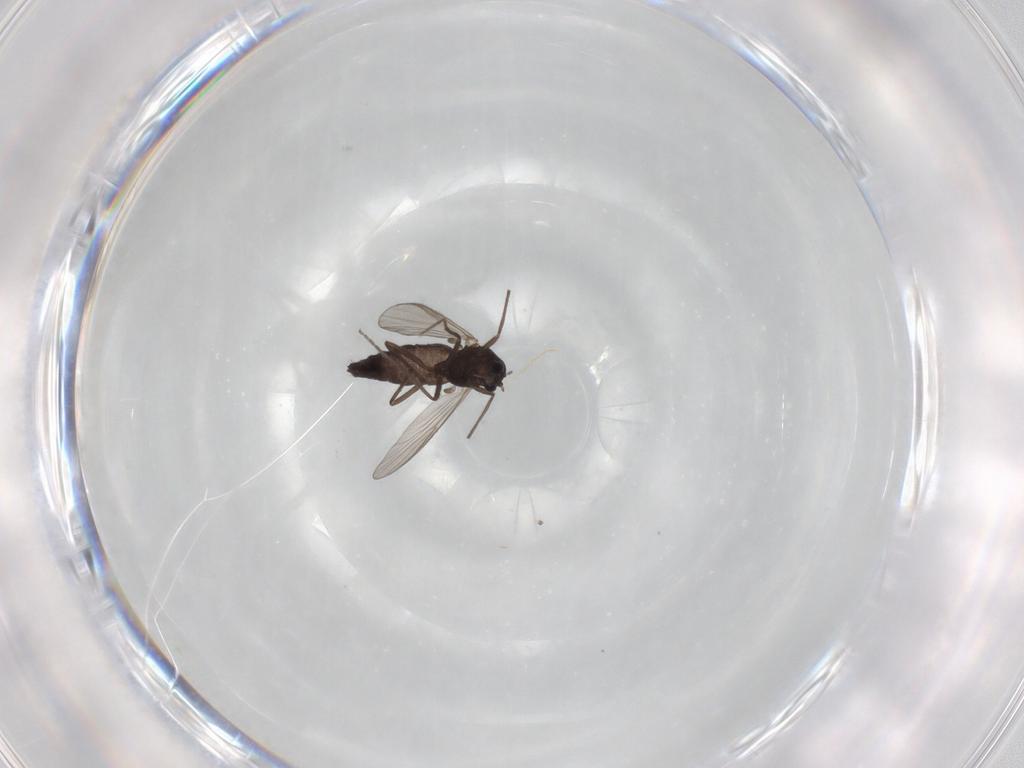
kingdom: Animalia
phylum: Arthropoda
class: Insecta
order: Diptera
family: Chironomidae
